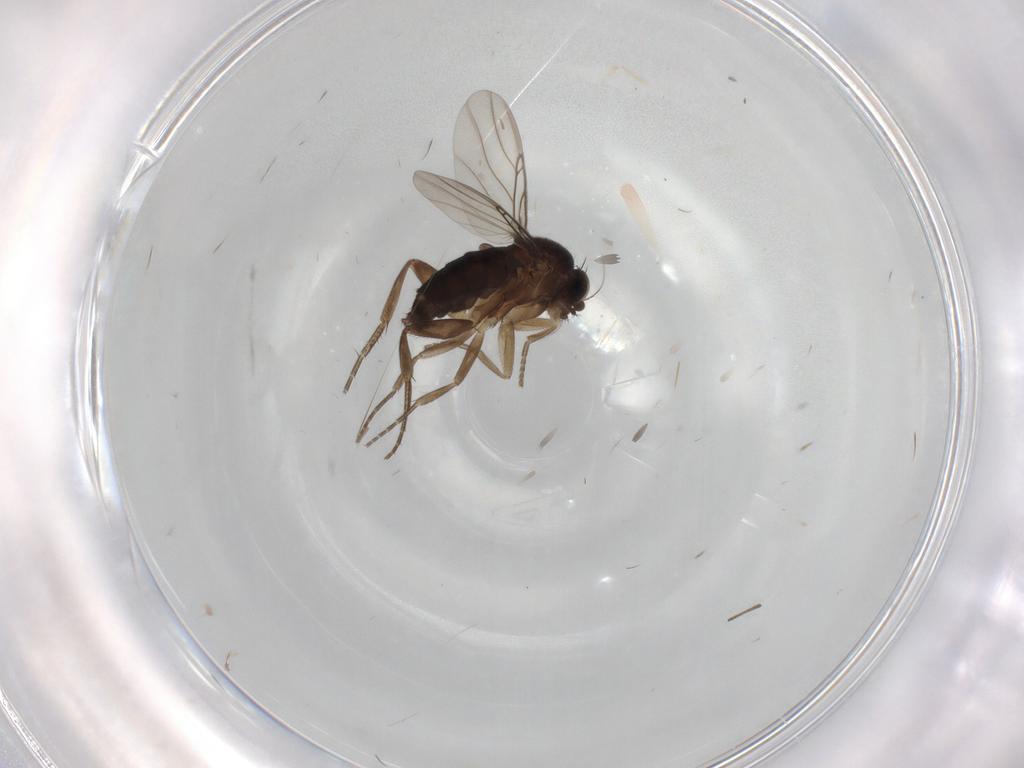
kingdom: Animalia
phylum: Arthropoda
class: Insecta
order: Diptera
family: Phoridae
